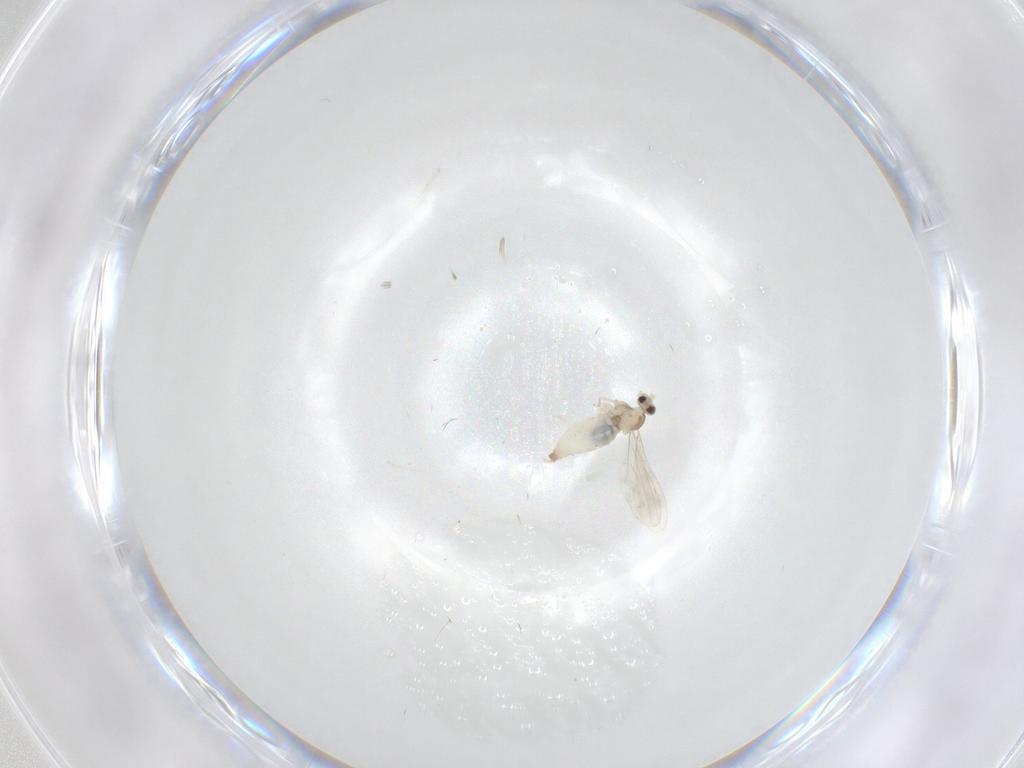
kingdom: Animalia
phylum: Arthropoda
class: Insecta
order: Diptera
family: Cecidomyiidae
